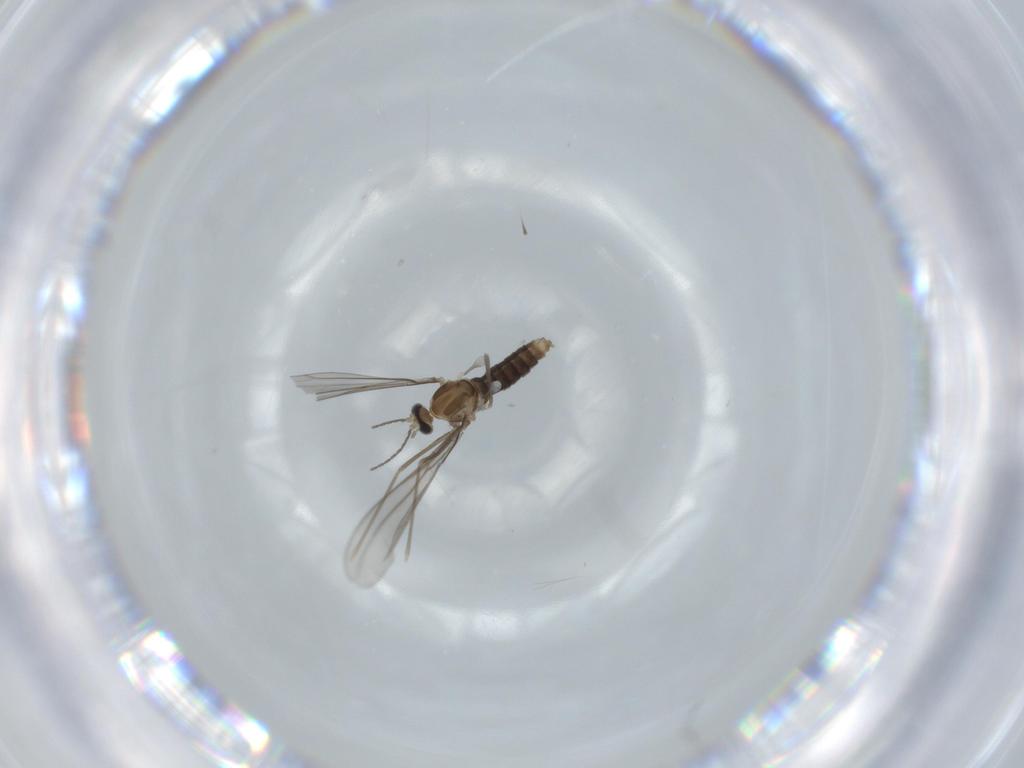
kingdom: Animalia
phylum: Arthropoda
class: Insecta
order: Diptera
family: Cecidomyiidae
